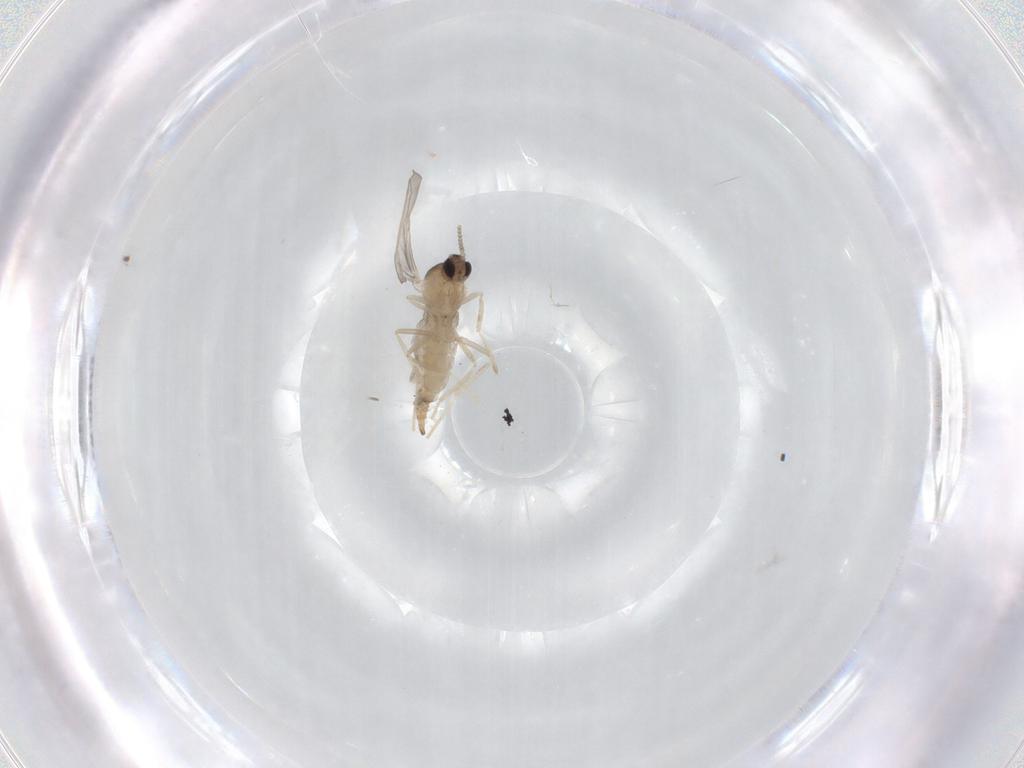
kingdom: Animalia
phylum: Arthropoda
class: Insecta
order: Diptera
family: Cecidomyiidae
